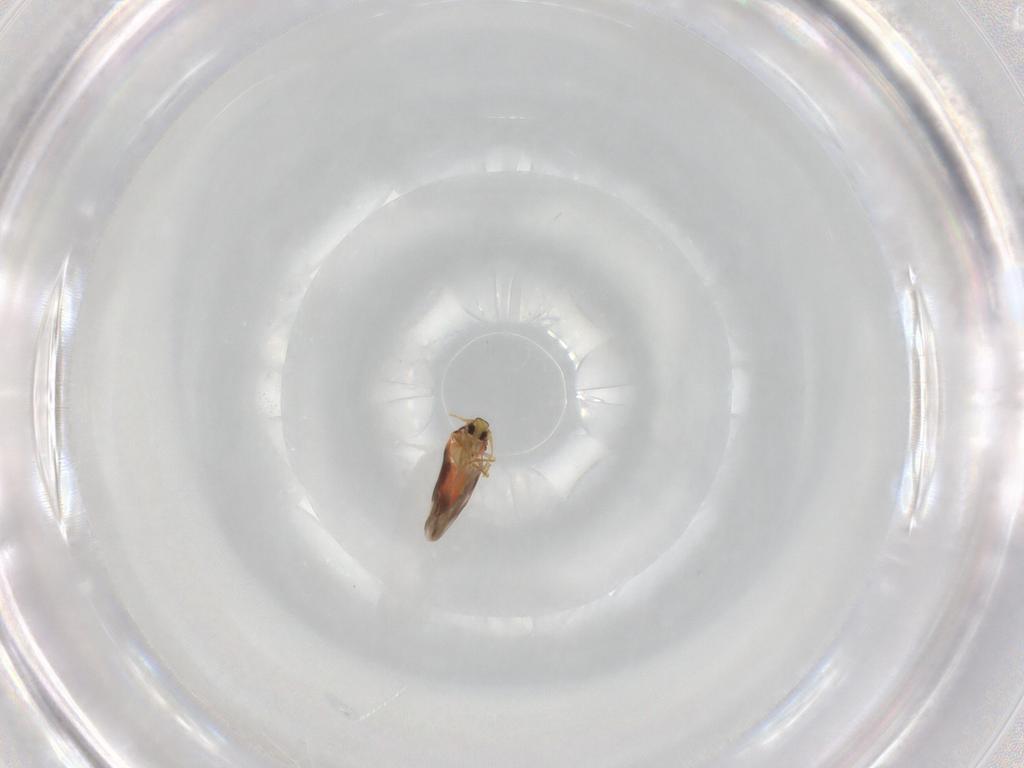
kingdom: Animalia
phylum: Arthropoda
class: Insecta
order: Hemiptera
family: Aleyrodidae
